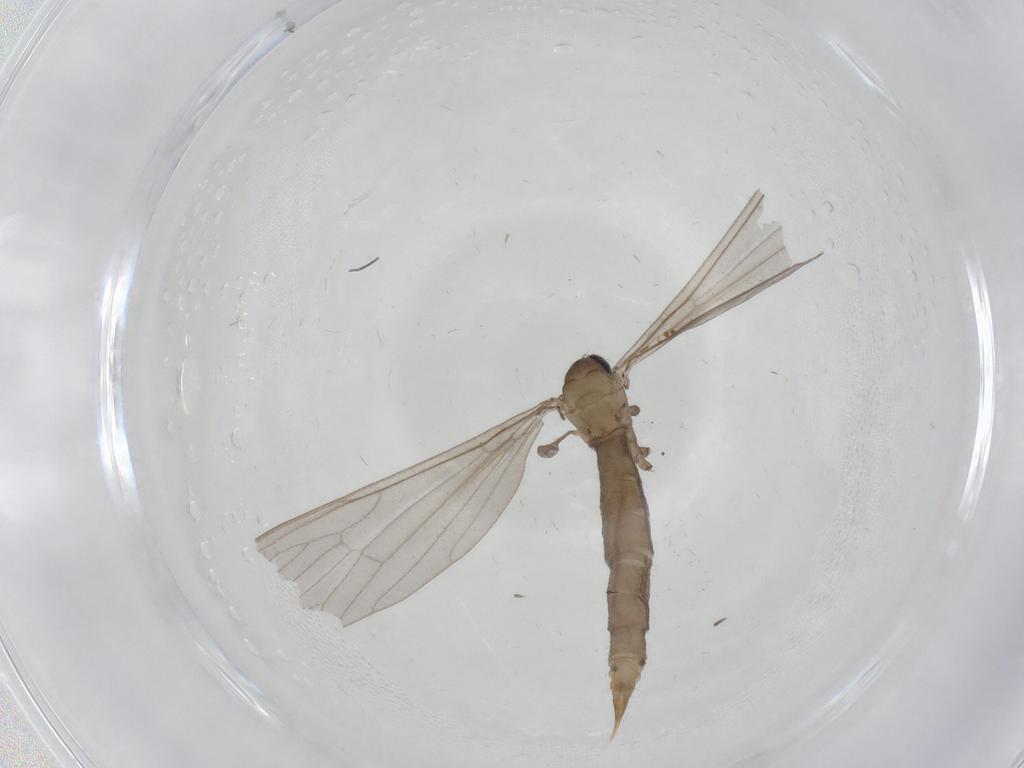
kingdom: Animalia
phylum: Arthropoda
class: Insecta
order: Diptera
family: Limoniidae
